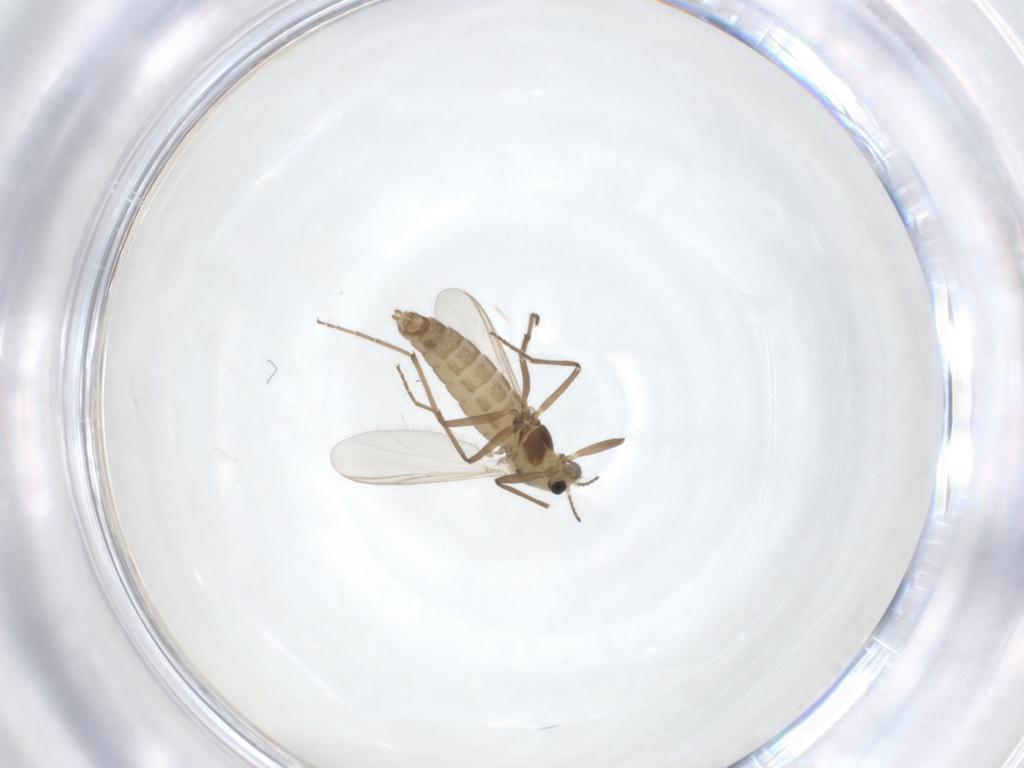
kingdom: Animalia
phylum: Arthropoda
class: Insecta
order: Diptera
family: Chironomidae
